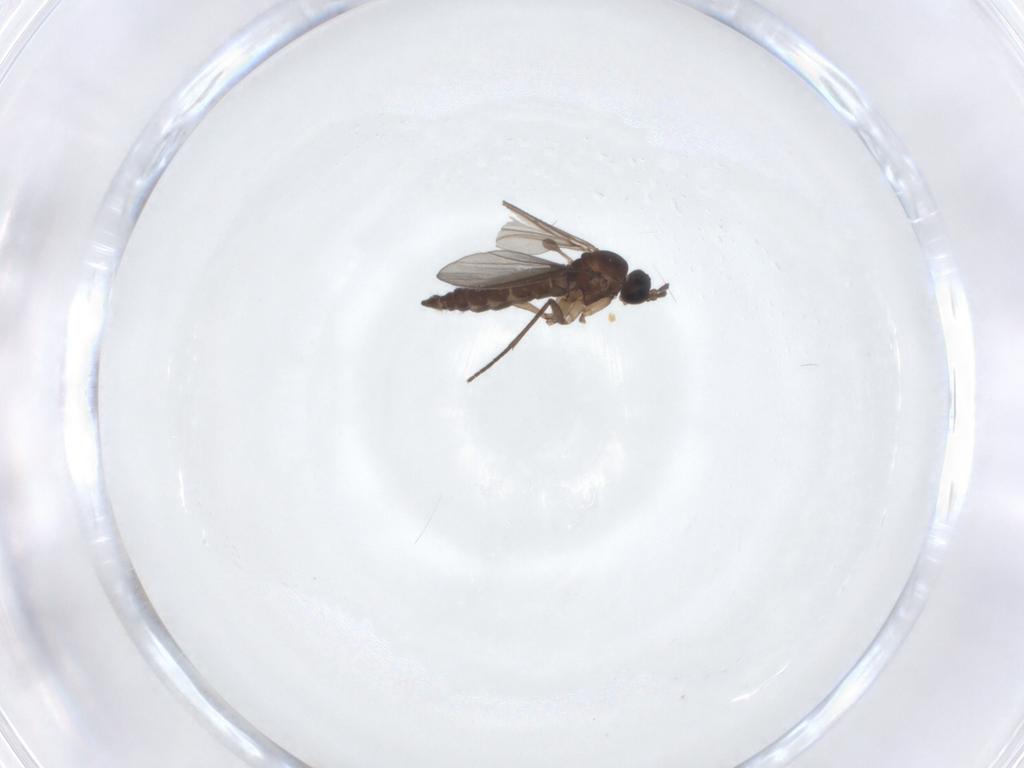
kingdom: Animalia
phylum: Arthropoda
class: Insecta
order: Diptera
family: Sciaridae
